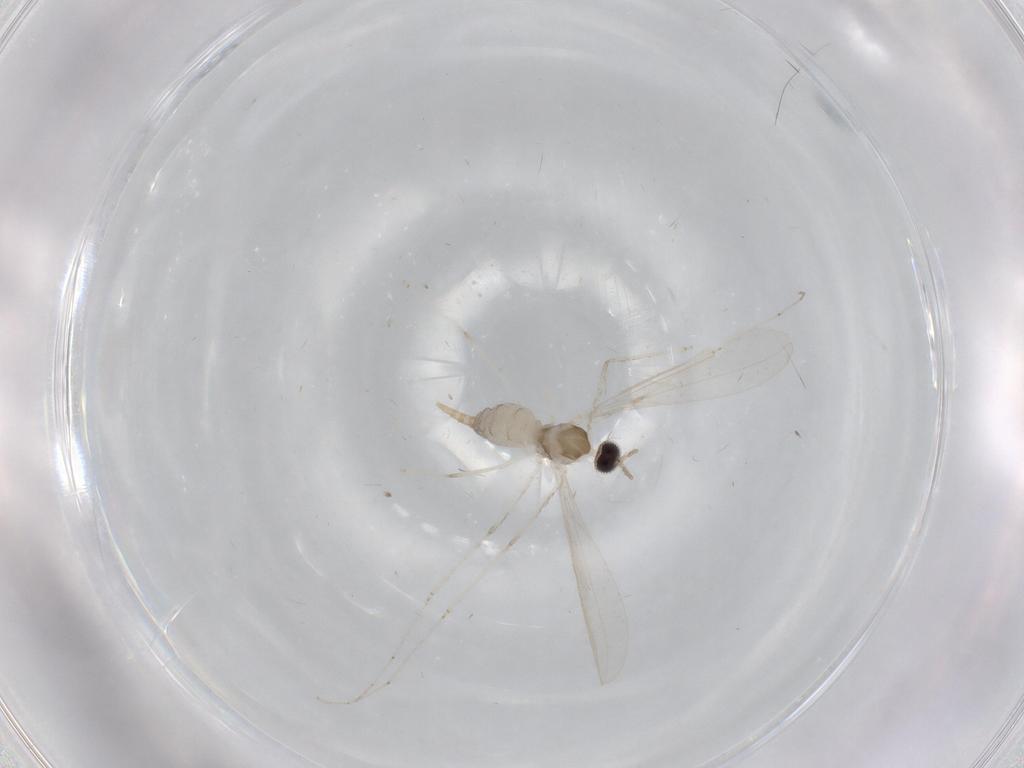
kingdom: Animalia
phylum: Arthropoda
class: Insecta
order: Diptera
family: Cecidomyiidae
